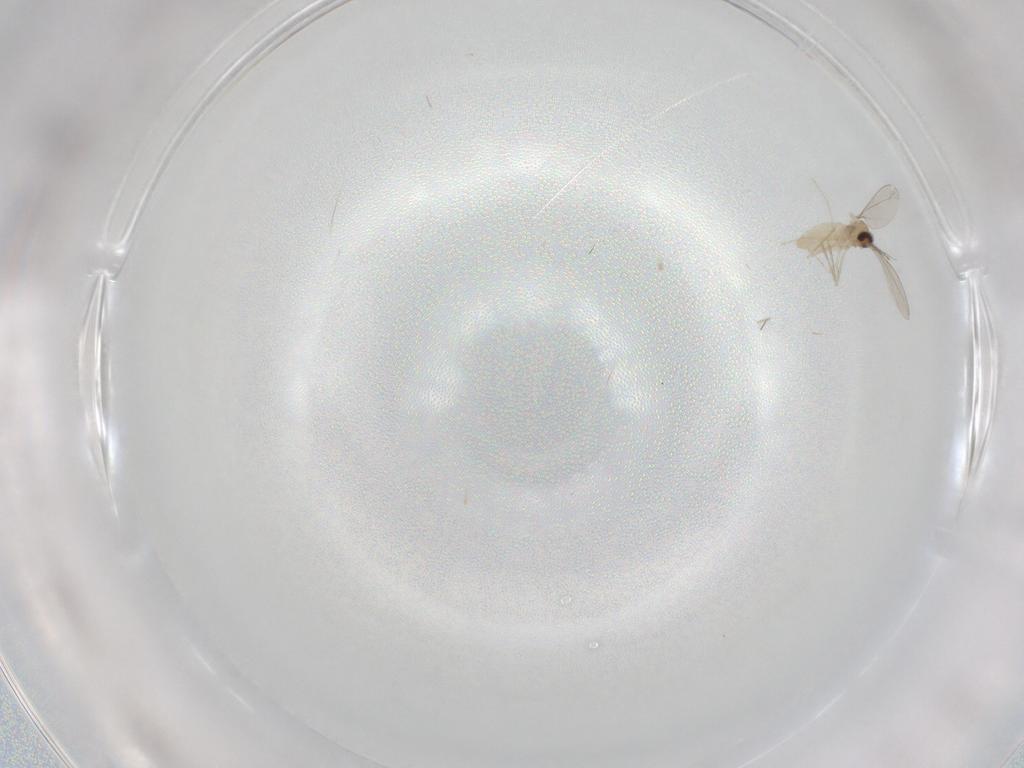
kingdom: Animalia
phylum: Arthropoda
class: Insecta
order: Diptera
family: Cecidomyiidae
